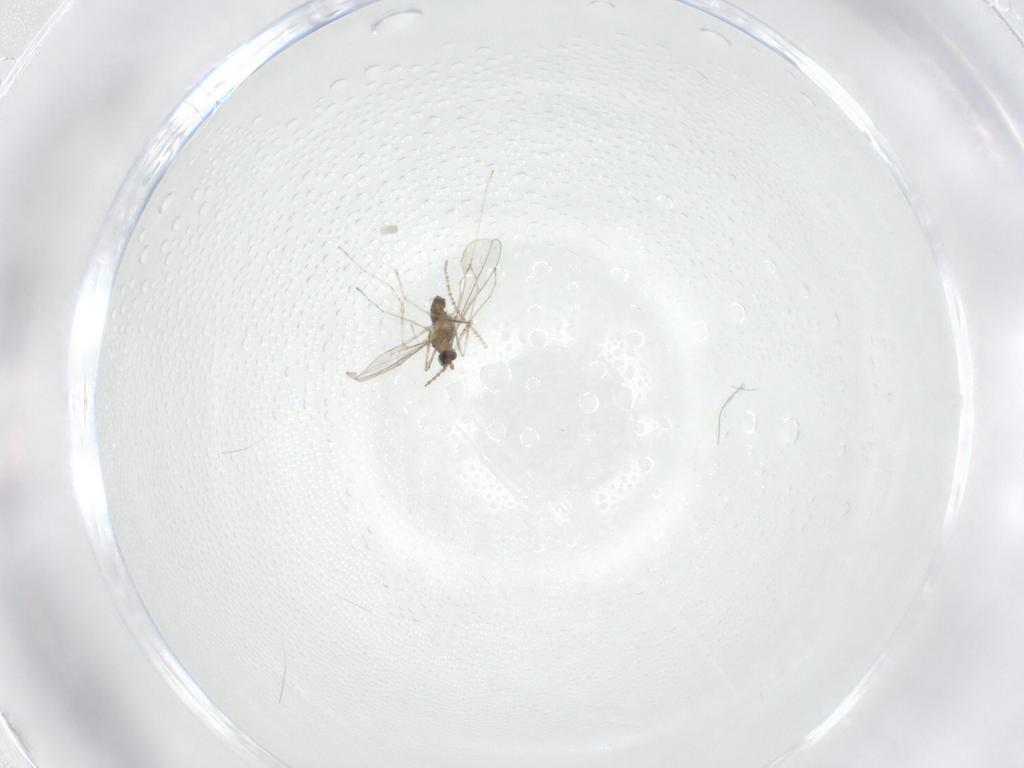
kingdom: Animalia
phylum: Arthropoda
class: Insecta
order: Diptera
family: Cecidomyiidae
